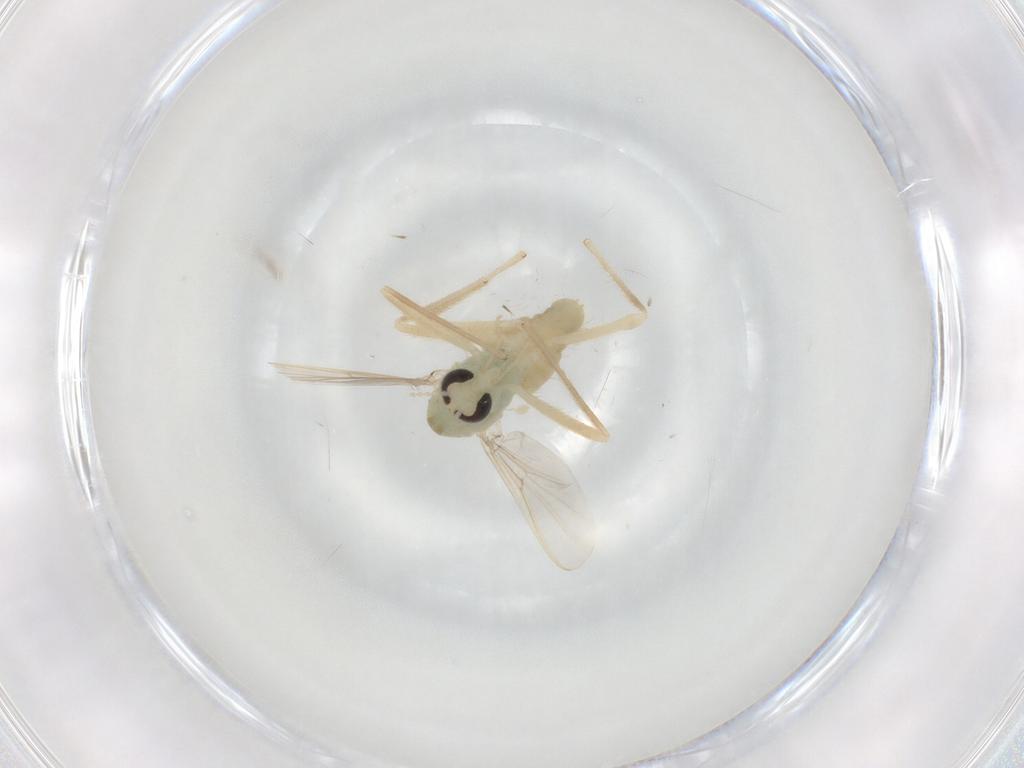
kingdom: Animalia
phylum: Arthropoda
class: Insecta
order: Diptera
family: Chironomidae
